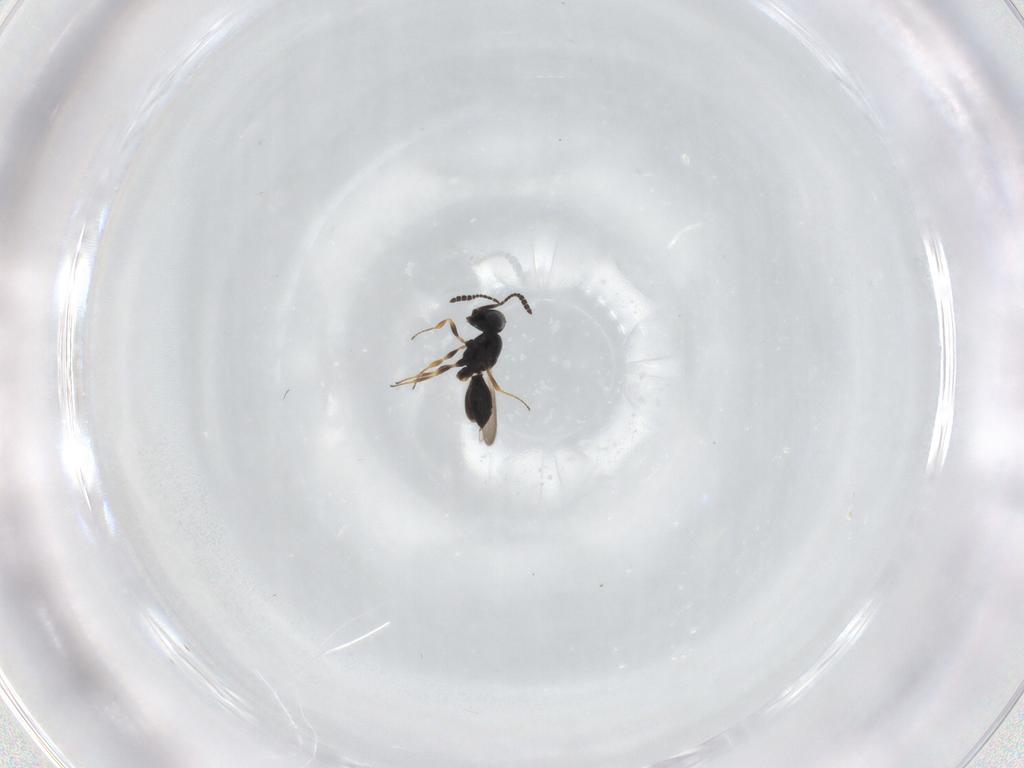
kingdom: Animalia
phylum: Arthropoda
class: Insecta
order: Hymenoptera
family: Scelionidae
